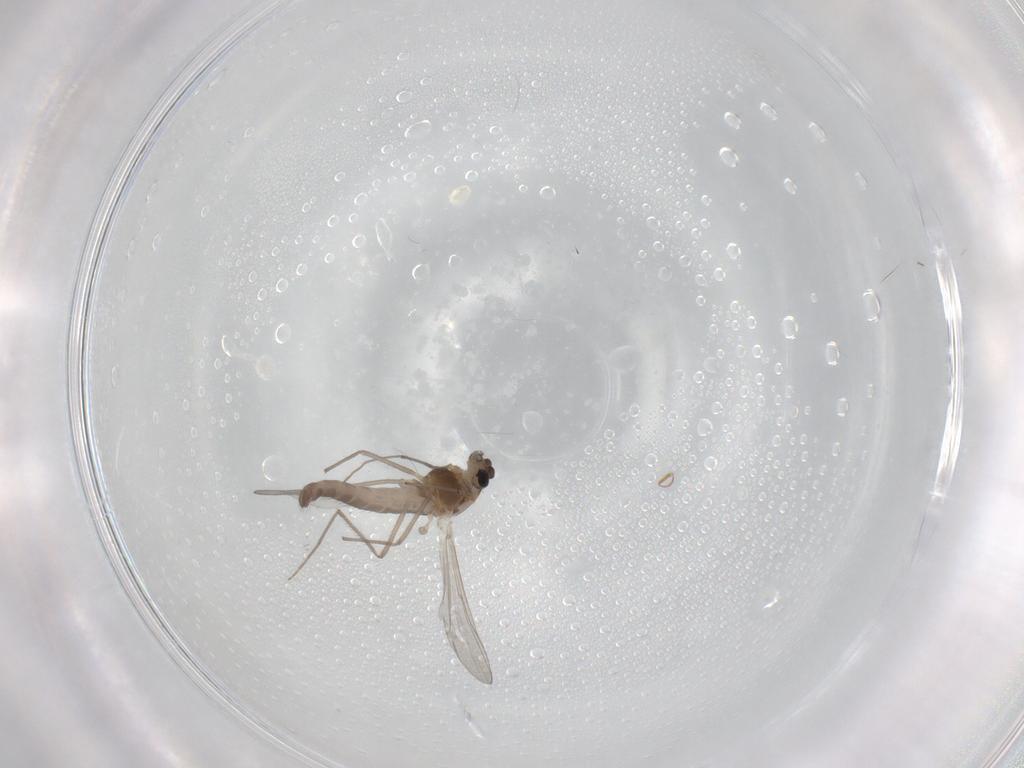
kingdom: Animalia
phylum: Arthropoda
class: Insecta
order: Diptera
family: Chironomidae
